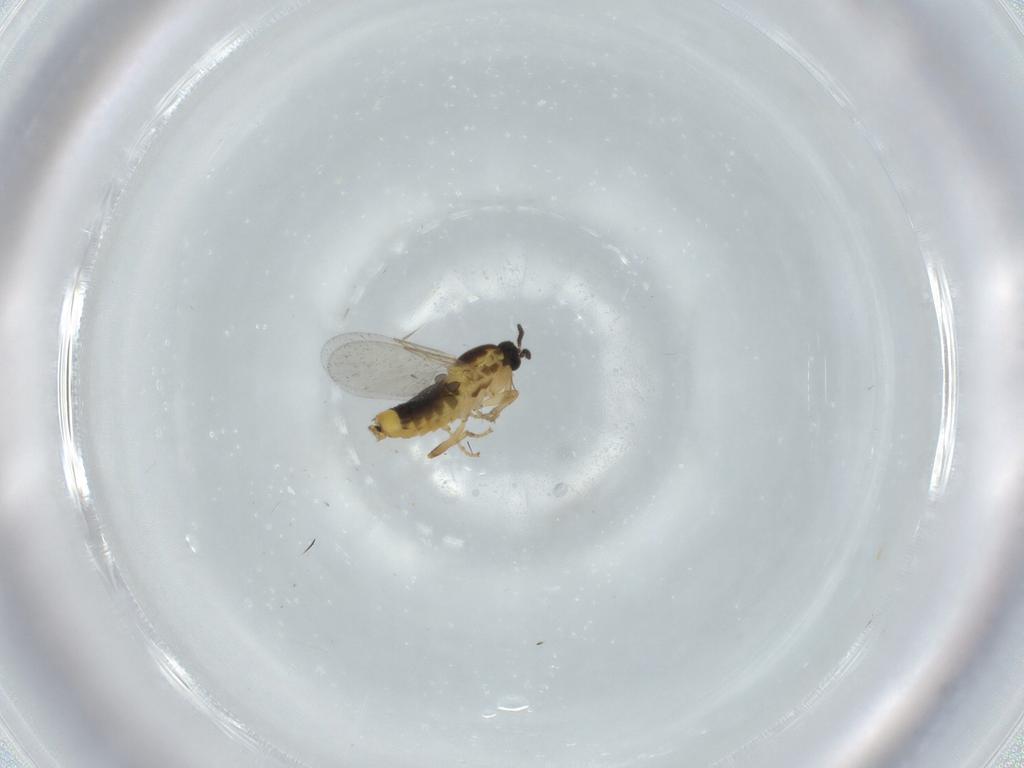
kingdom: Animalia
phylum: Arthropoda
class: Insecta
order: Diptera
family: Scatopsidae
